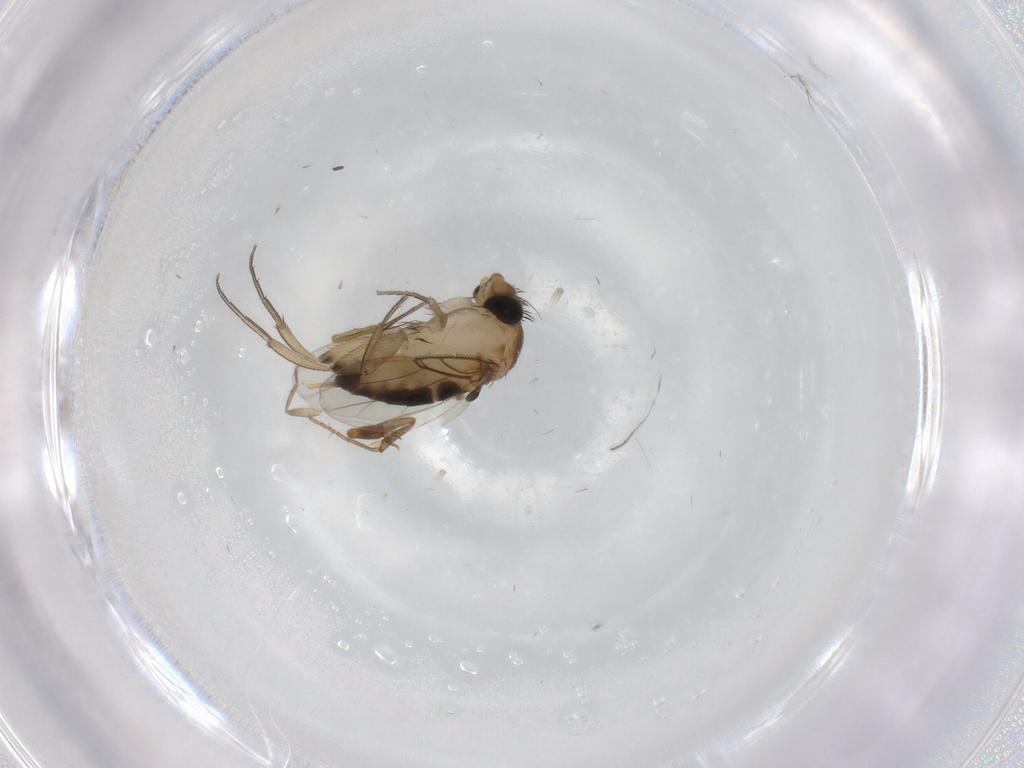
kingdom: Animalia
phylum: Arthropoda
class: Insecta
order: Diptera
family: Phoridae
